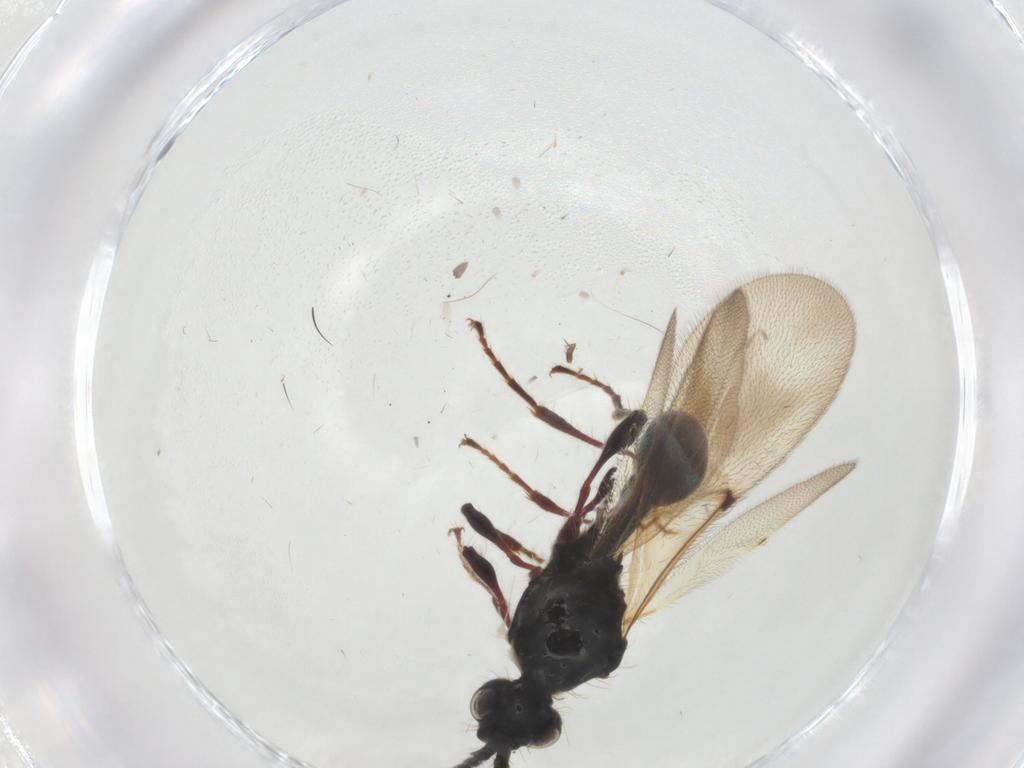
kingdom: Animalia
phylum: Arthropoda
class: Insecta
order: Hymenoptera
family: Diapriidae
